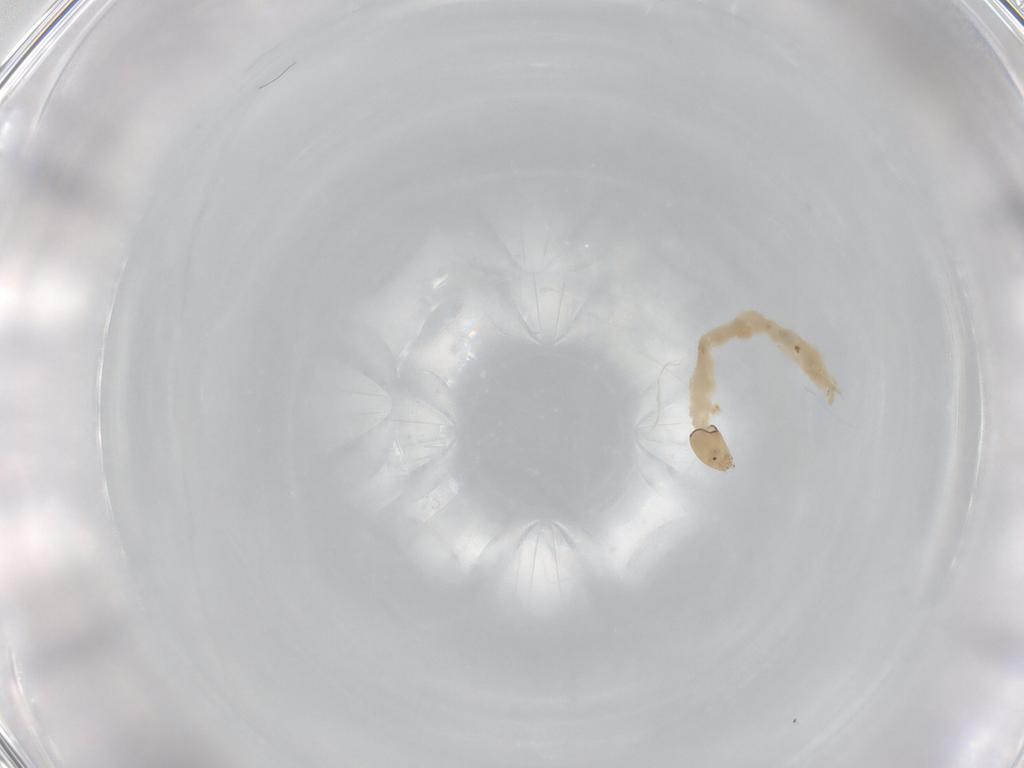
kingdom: Animalia
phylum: Arthropoda
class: Insecta
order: Diptera
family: Chironomidae
